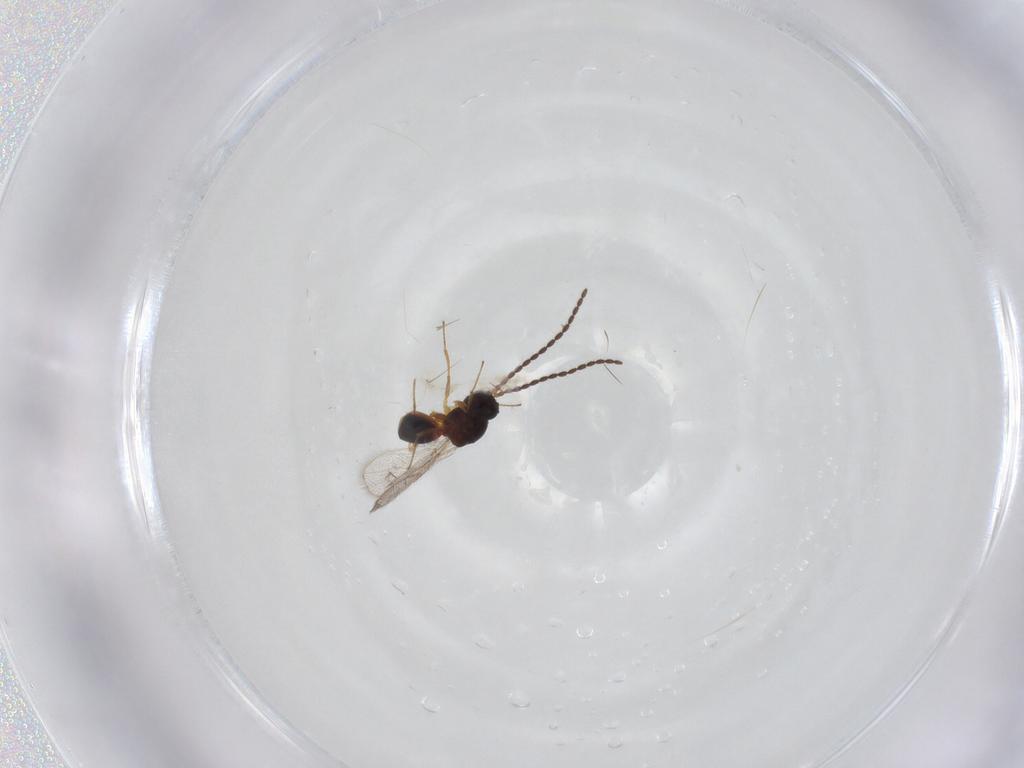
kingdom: Animalia
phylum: Arthropoda
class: Insecta
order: Hymenoptera
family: Figitidae
